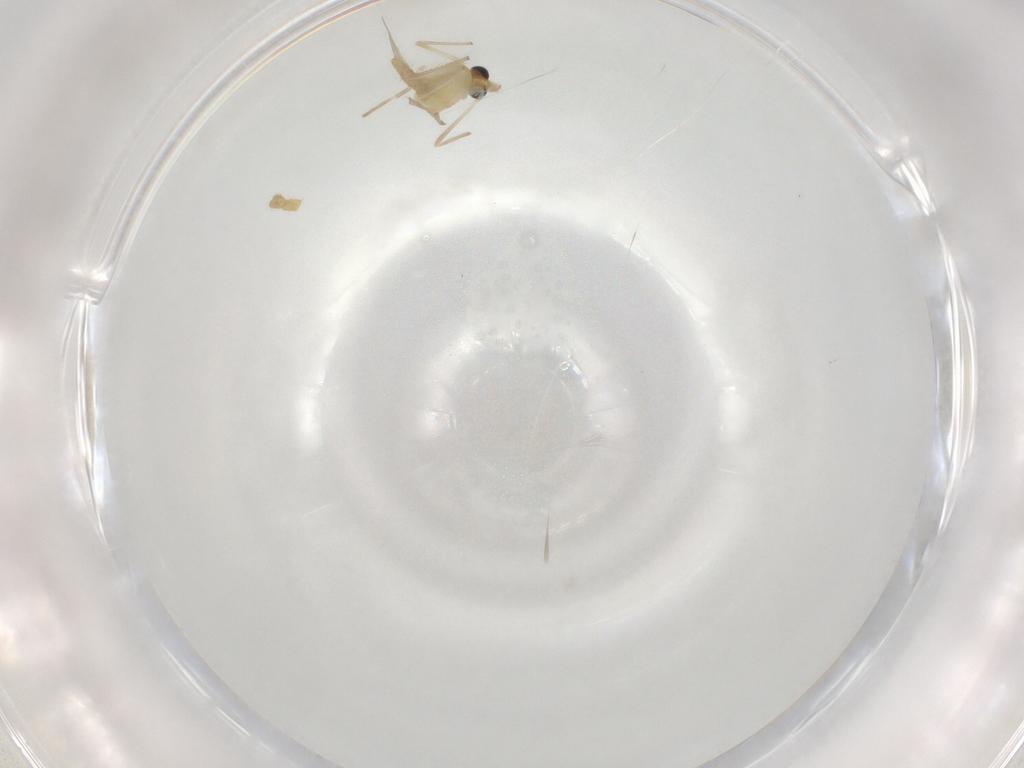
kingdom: Animalia
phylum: Arthropoda
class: Insecta
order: Diptera
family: Chironomidae
